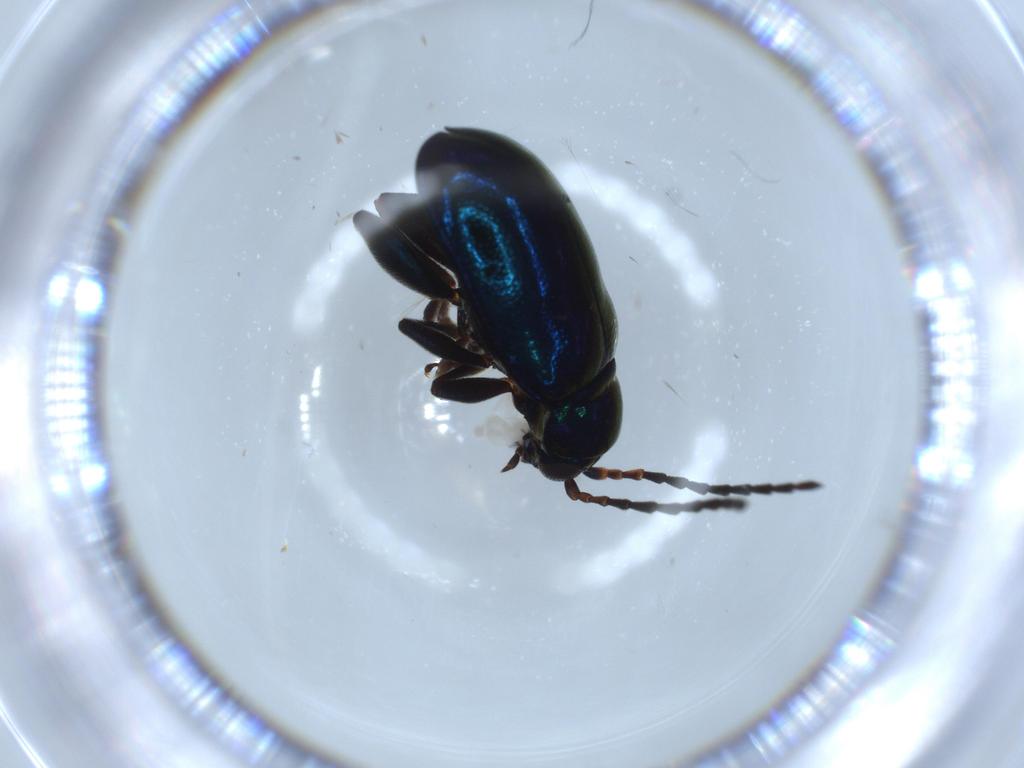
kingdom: Animalia
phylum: Arthropoda
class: Insecta
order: Coleoptera
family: Chrysomelidae
